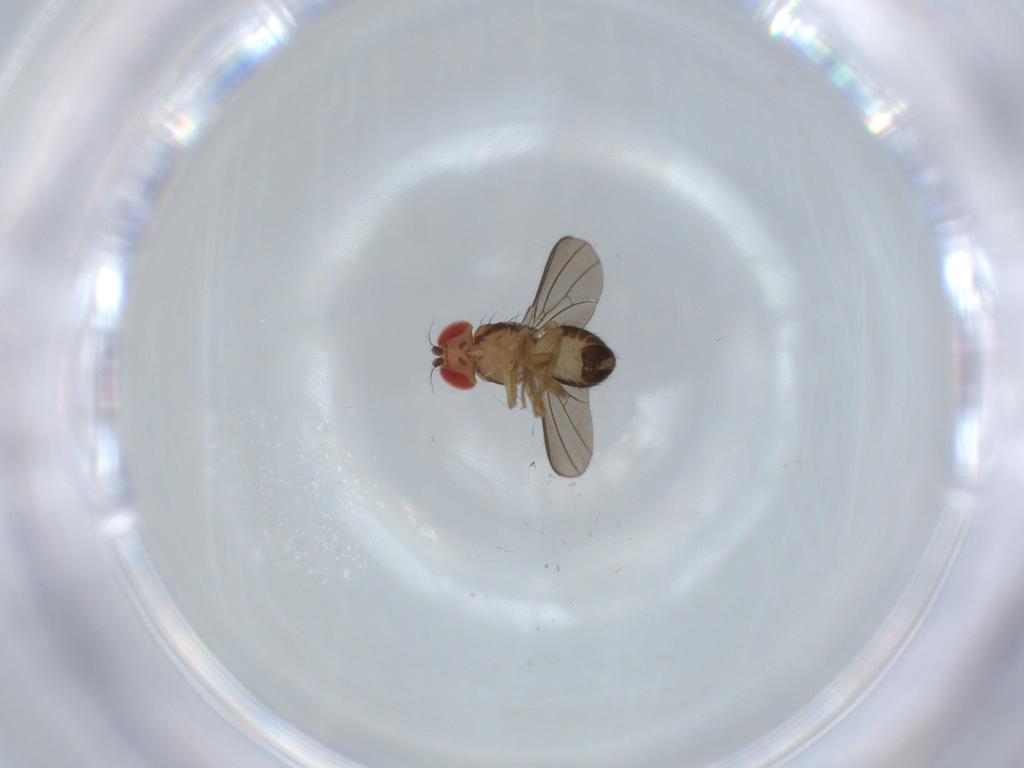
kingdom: Animalia
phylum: Arthropoda
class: Insecta
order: Diptera
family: Drosophilidae
